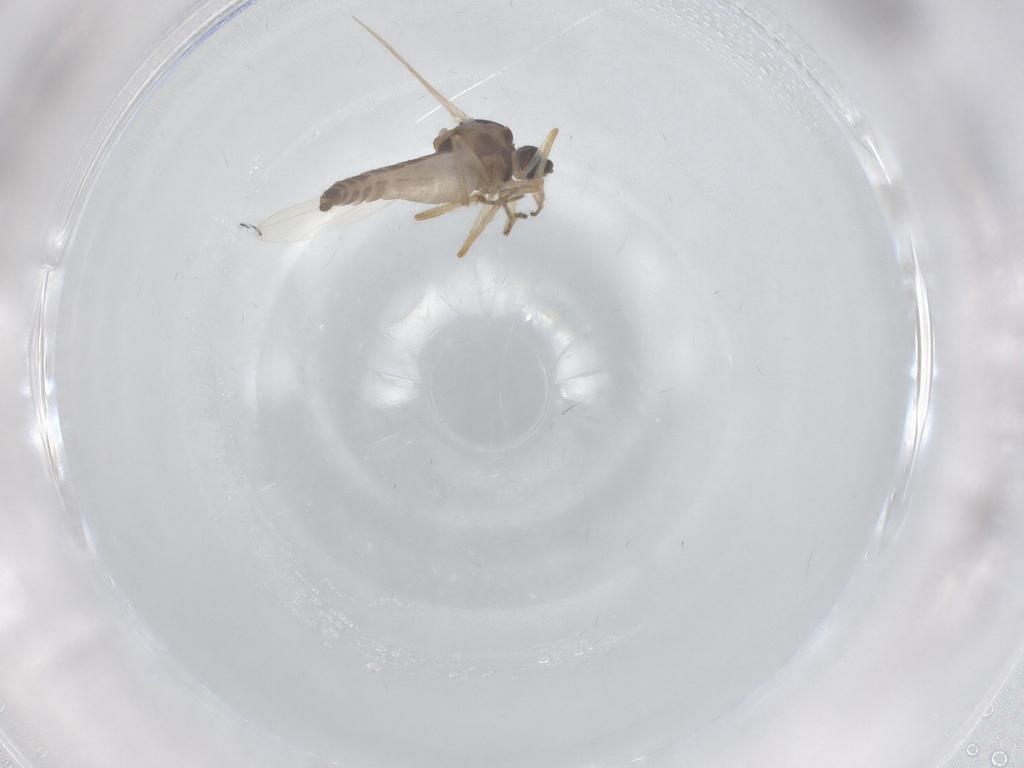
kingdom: Animalia
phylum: Arthropoda
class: Insecta
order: Diptera
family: Ceratopogonidae
